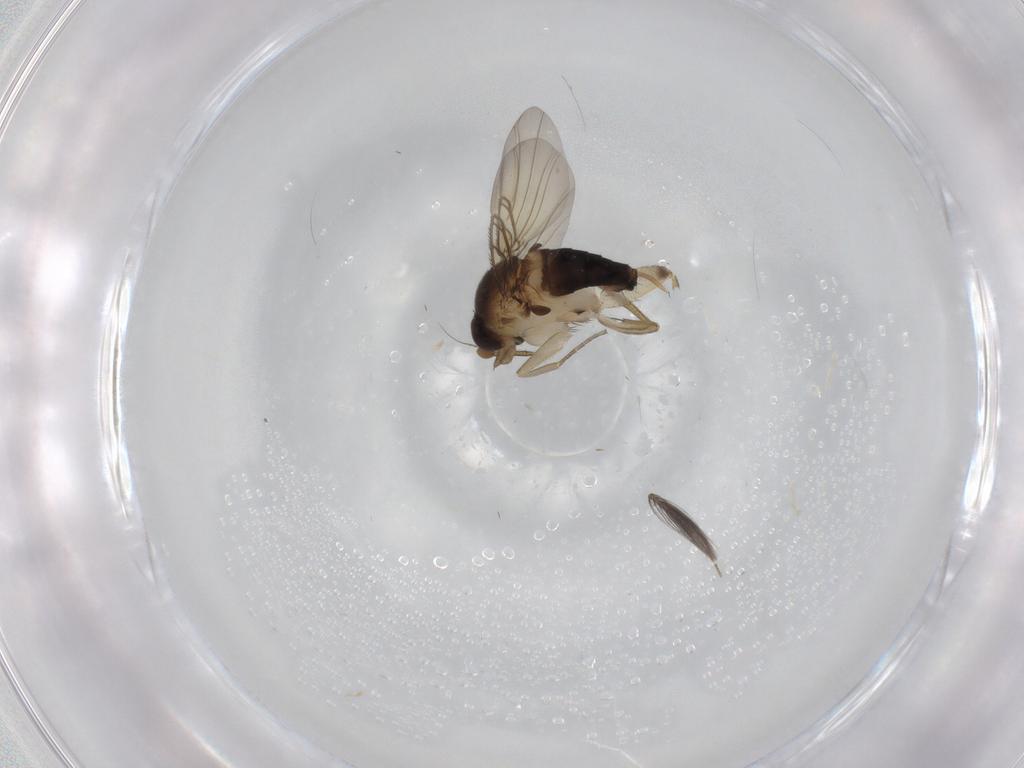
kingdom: Animalia
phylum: Arthropoda
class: Insecta
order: Diptera
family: Phoridae
